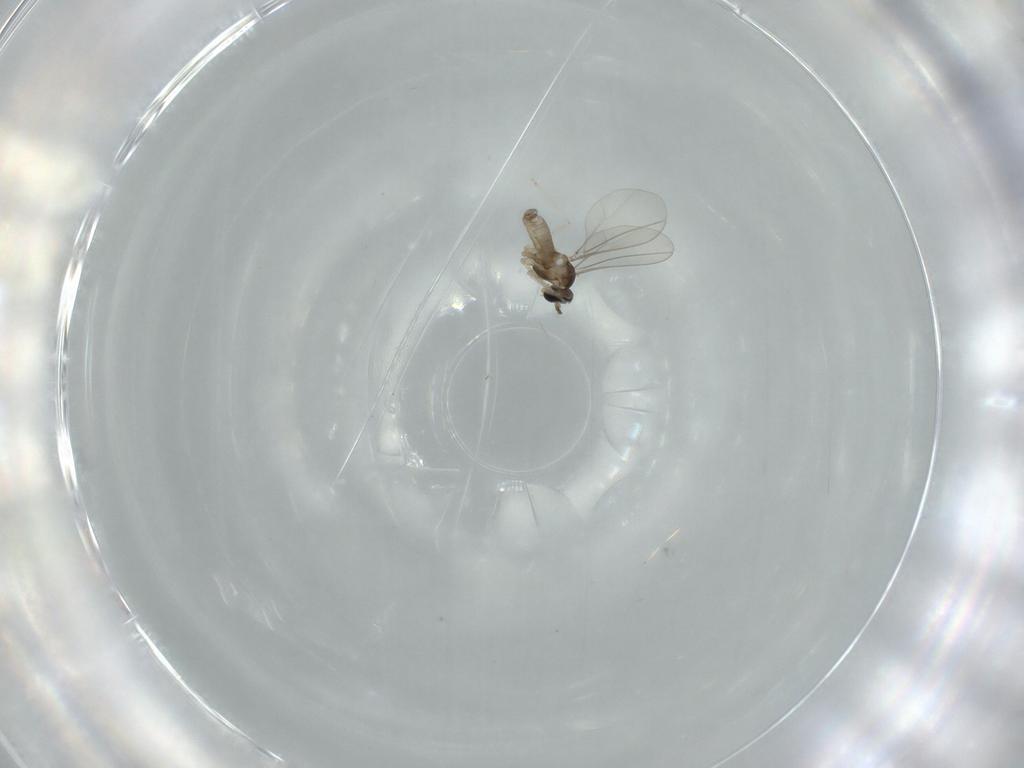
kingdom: Animalia
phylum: Arthropoda
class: Insecta
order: Diptera
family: Cecidomyiidae
